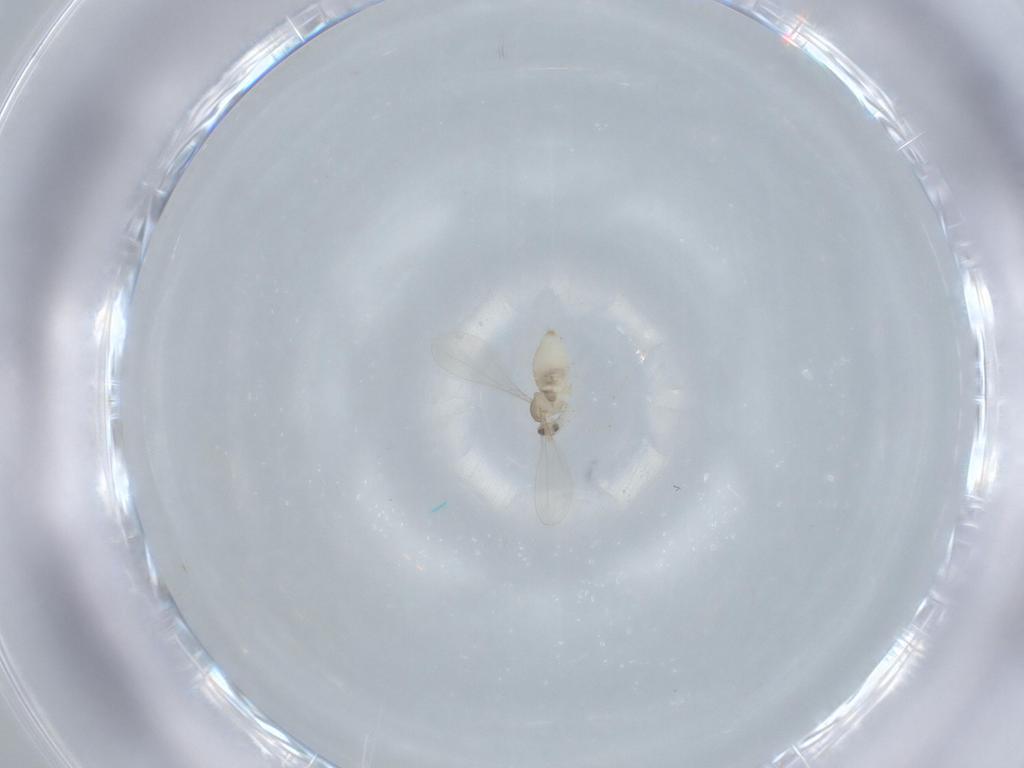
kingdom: Animalia
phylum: Arthropoda
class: Insecta
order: Diptera
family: Cecidomyiidae
